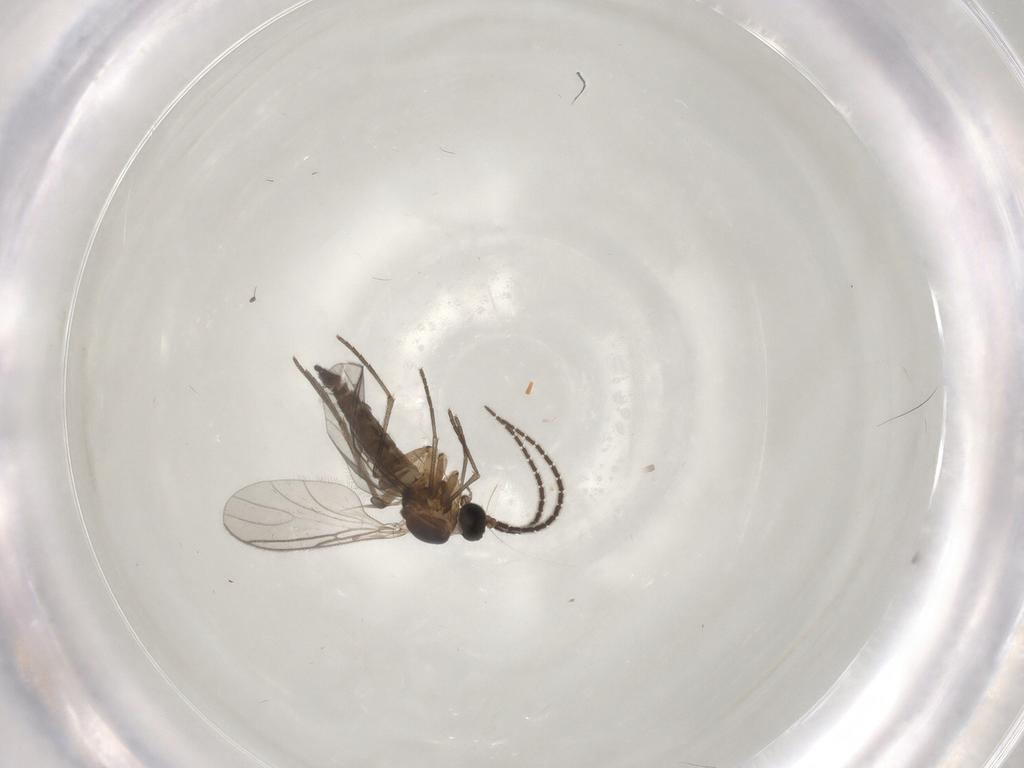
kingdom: Animalia
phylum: Arthropoda
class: Insecta
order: Diptera
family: Sciaridae
